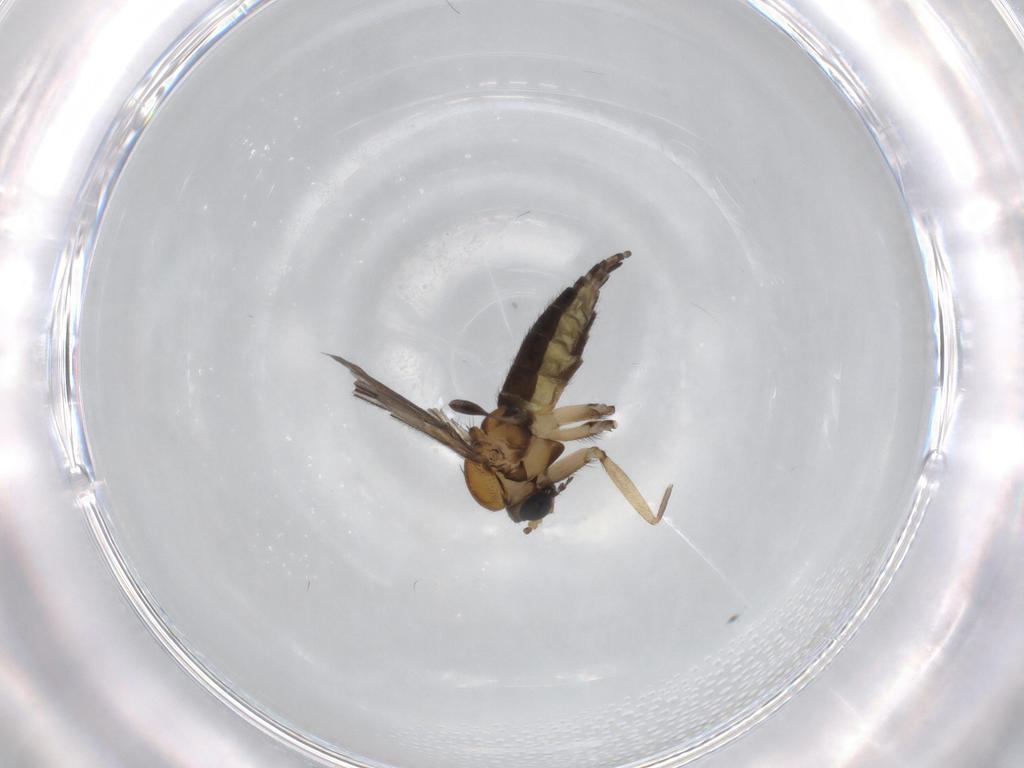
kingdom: Animalia
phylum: Arthropoda
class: Insecta
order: Diptera
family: Sciaridae
